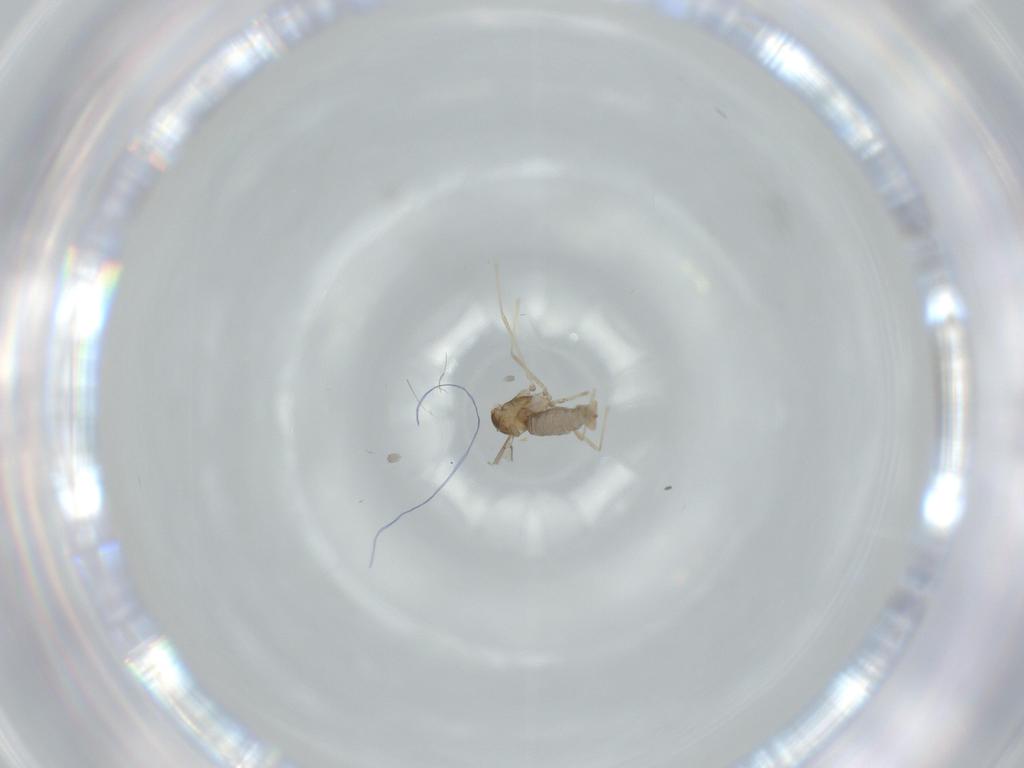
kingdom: Animalia
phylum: Arthropoda
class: Insecta
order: Diptera
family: Cecidomyiidae
